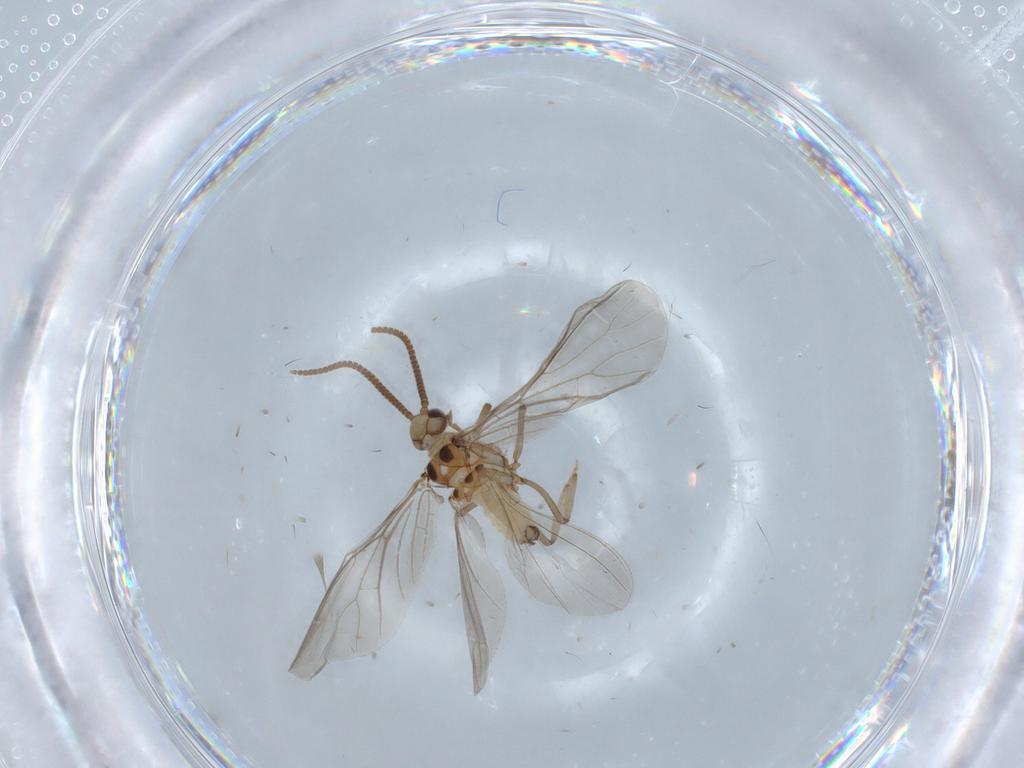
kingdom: Animalia
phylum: Arthropoda
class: Insecta
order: Neuroptera
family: Coniopterygidae
